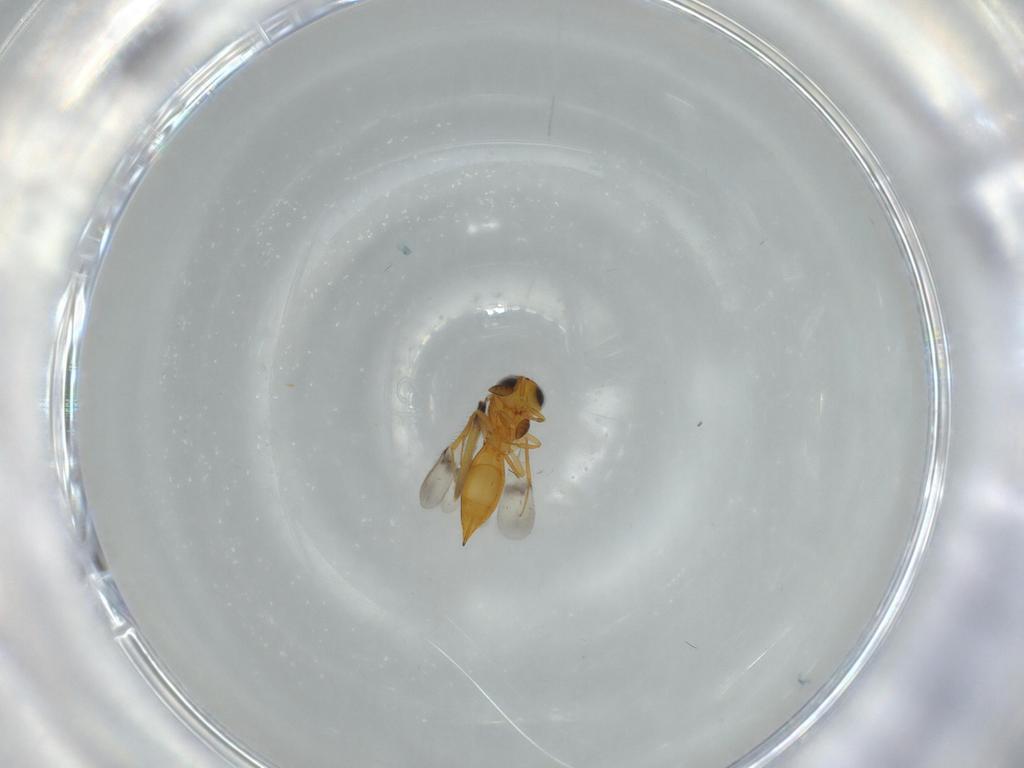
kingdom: Animalia
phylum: Arthropoda
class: Insecta
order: Hymenoptera
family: Scelionidae
